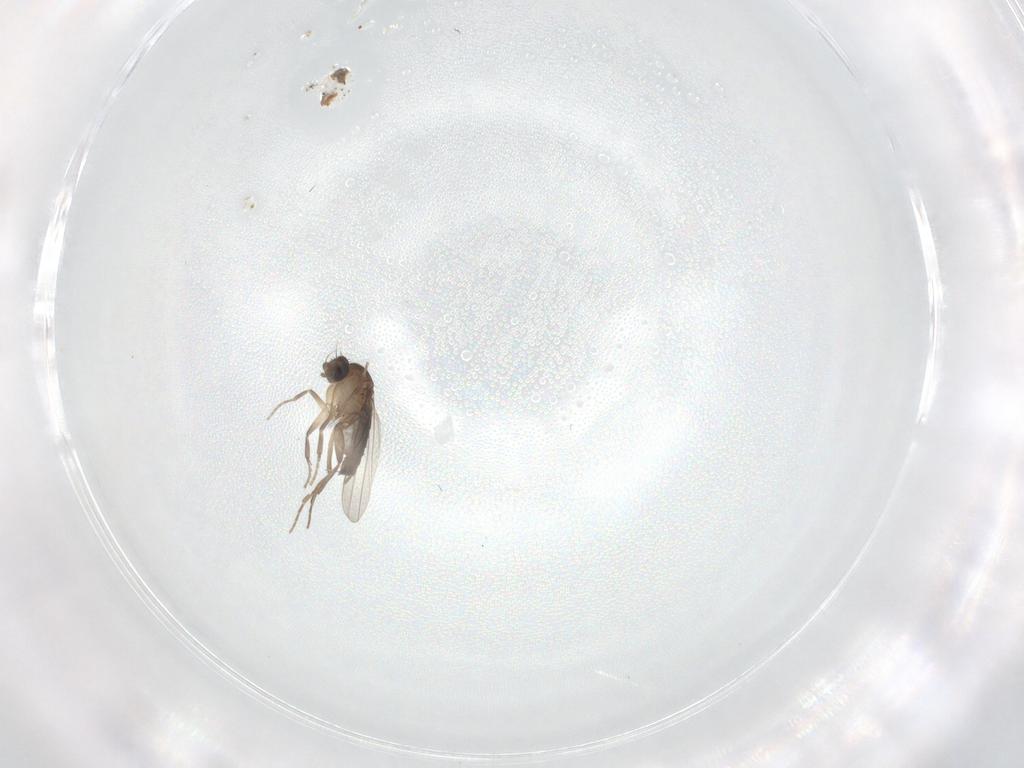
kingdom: Animalia
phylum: Arthropoda
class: Insecta
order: Diptera
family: Phoridae
